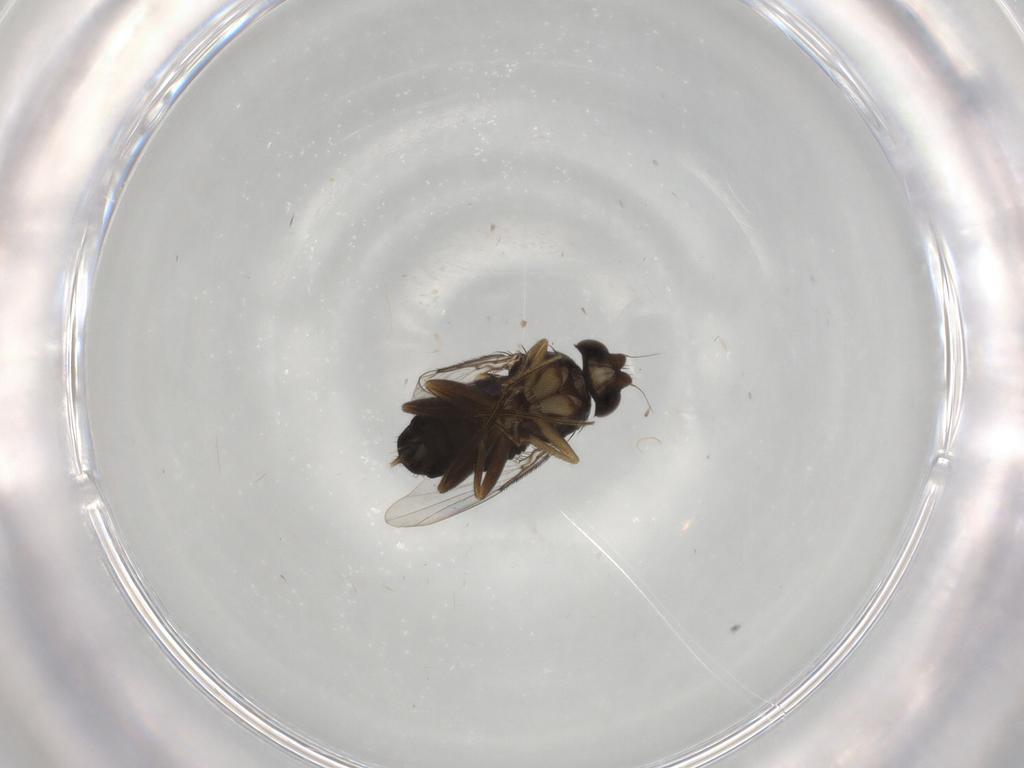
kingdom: Animalia
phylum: Arthropoda
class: Insecta
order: Diptera
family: Phoridae
